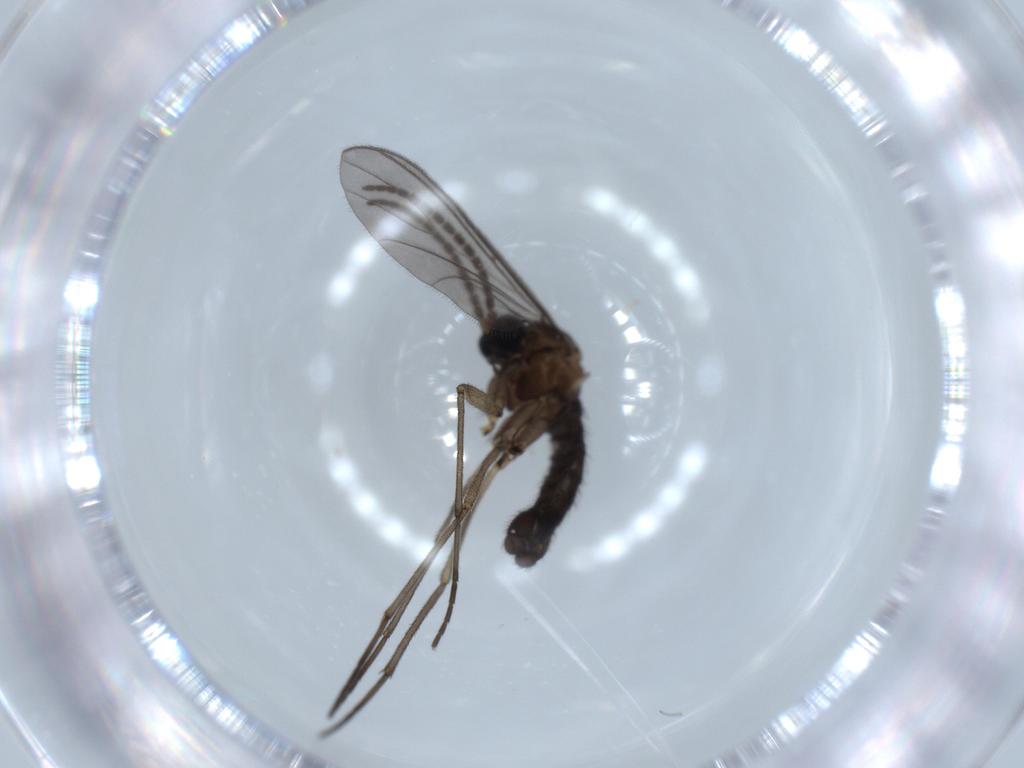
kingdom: Animalia
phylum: Arthropoda
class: Insecta
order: Diptera
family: Sciaridae
